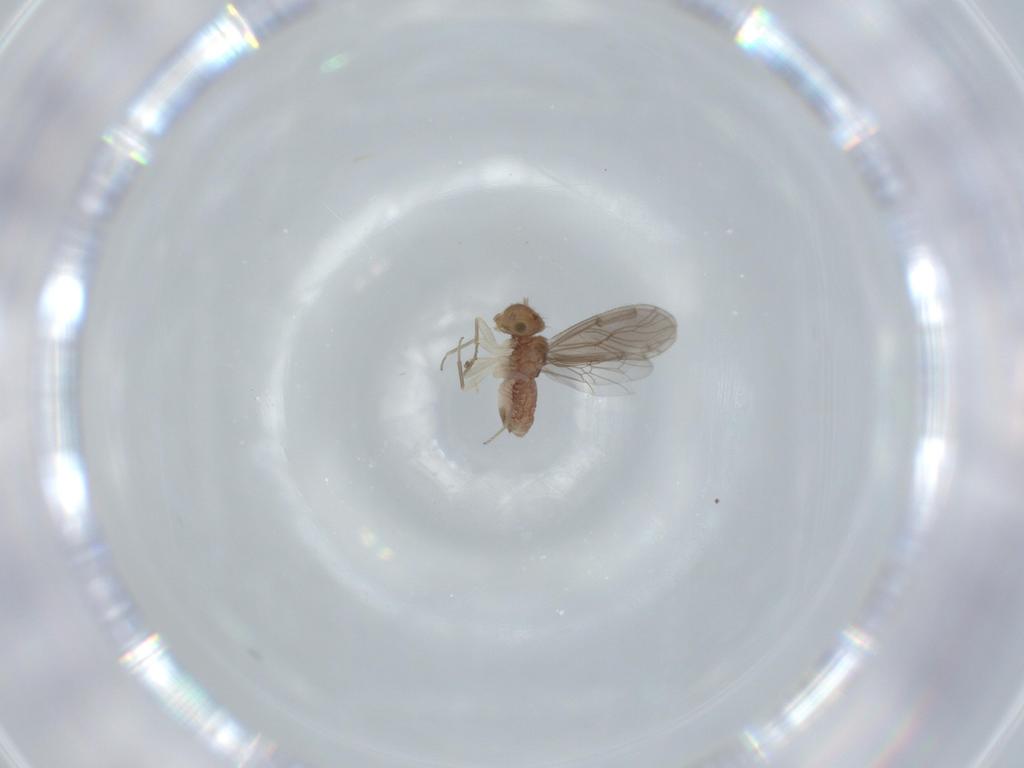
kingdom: Animalia
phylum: Arthropoda
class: Insecta
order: Psocodea
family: Ectopsocidae
